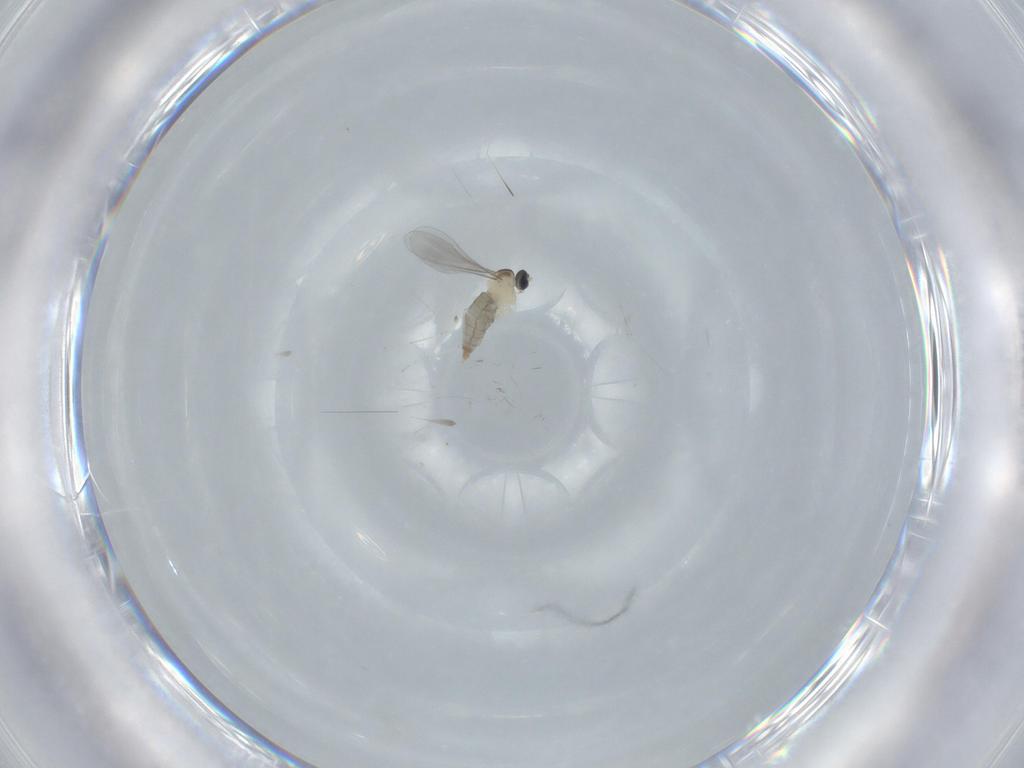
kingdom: Animalia
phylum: Arthropoda
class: Insecta
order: Diptera
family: Cecidomyiidae
